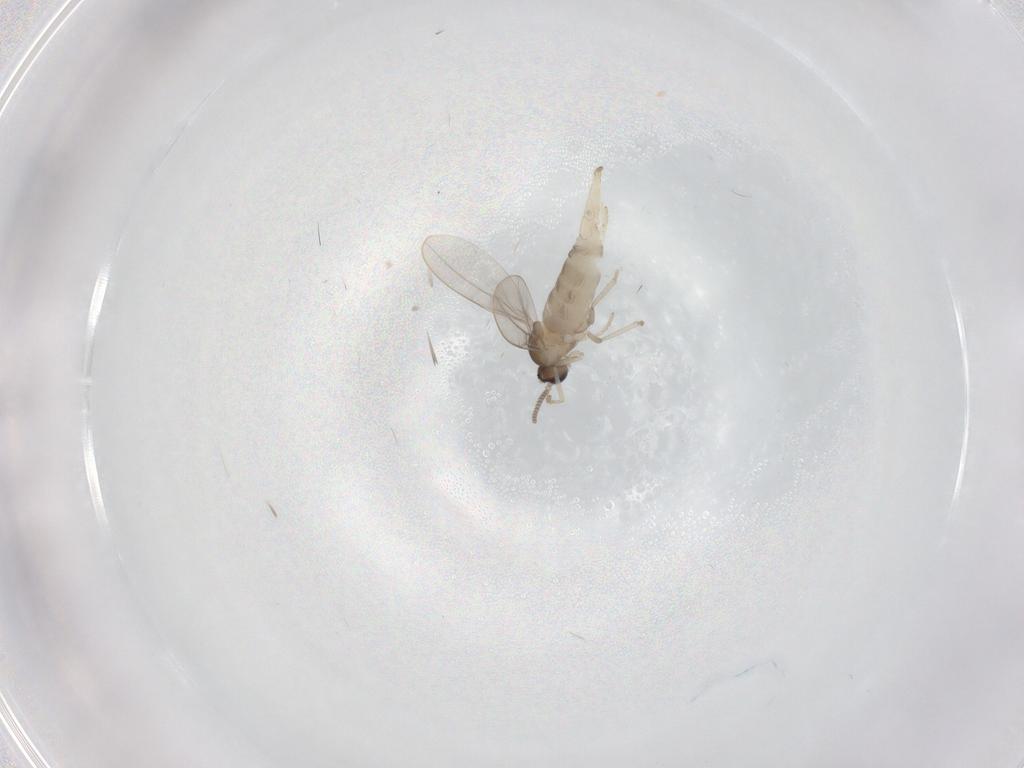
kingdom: Animalia
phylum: Arthropoda
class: Insecta
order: Diptera
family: Cecidomyiidae
